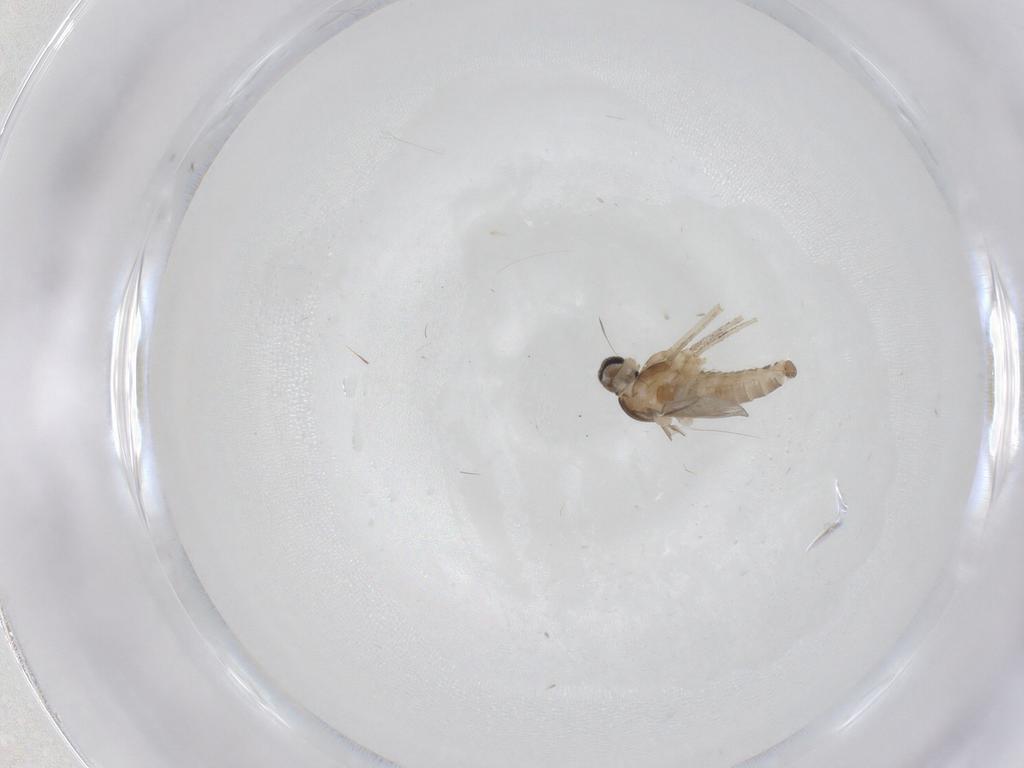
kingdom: Animalia
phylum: Arthropoda
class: Insecta
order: Diptera
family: Cecidomyiidae
